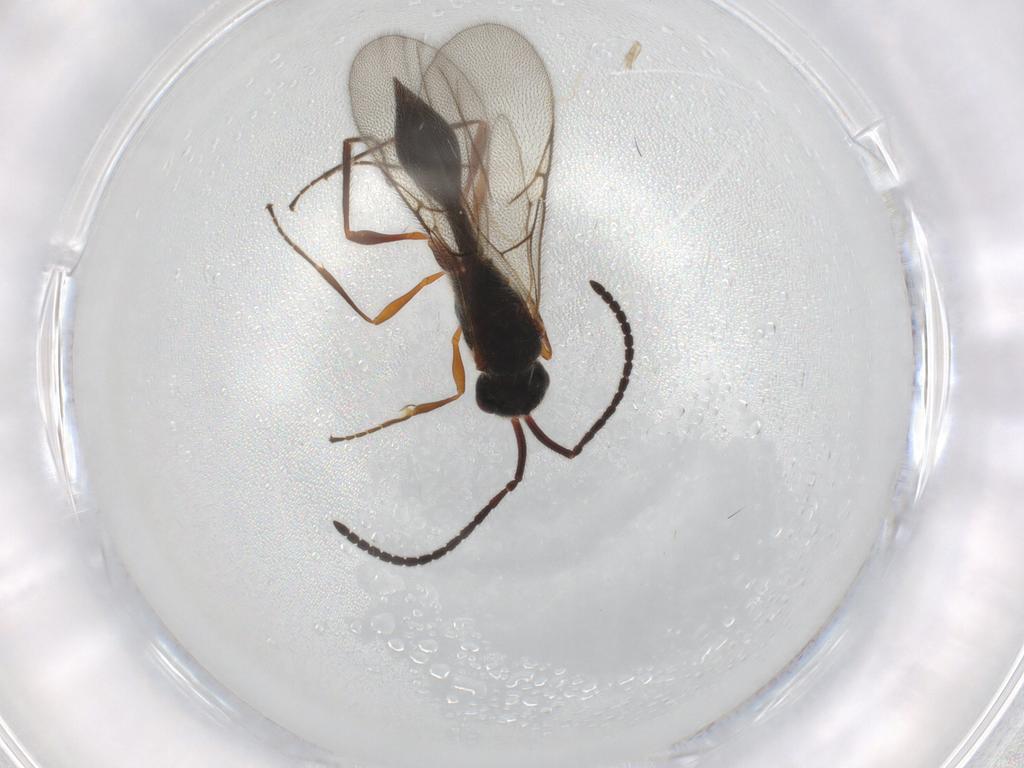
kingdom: Animalia
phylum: Arthropoda
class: Insecta
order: Hymenoptera
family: Diapriidae
